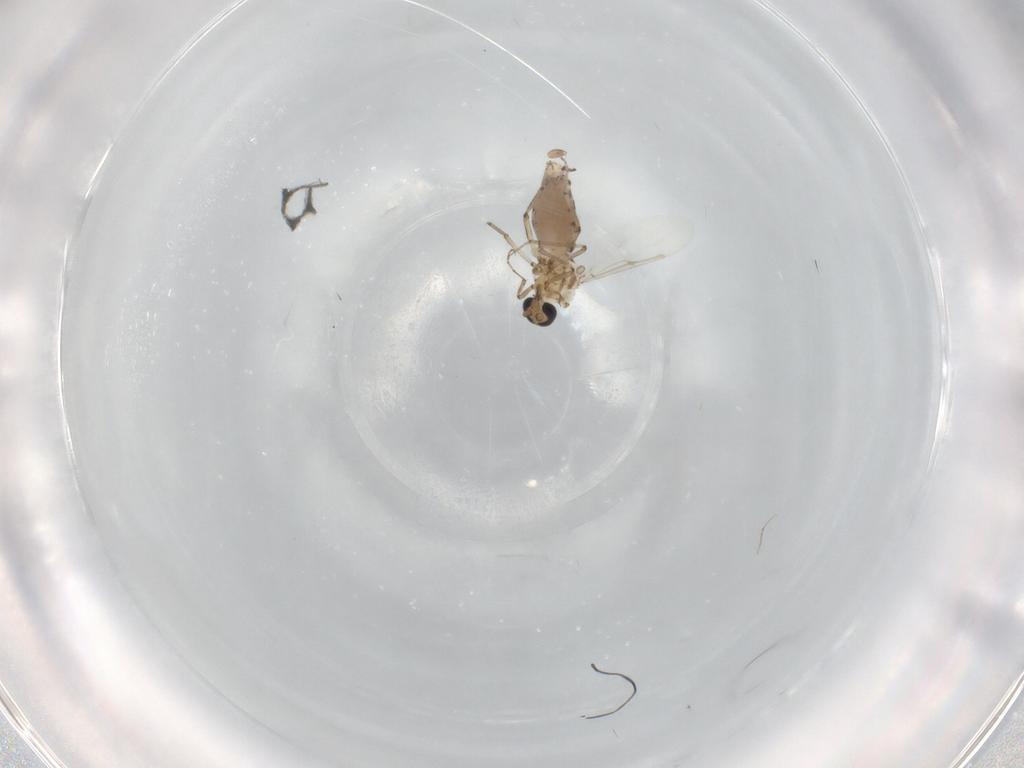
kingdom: Animalia
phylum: Arthropoda
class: Insecta
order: Diptera
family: Ceratopogonidae
